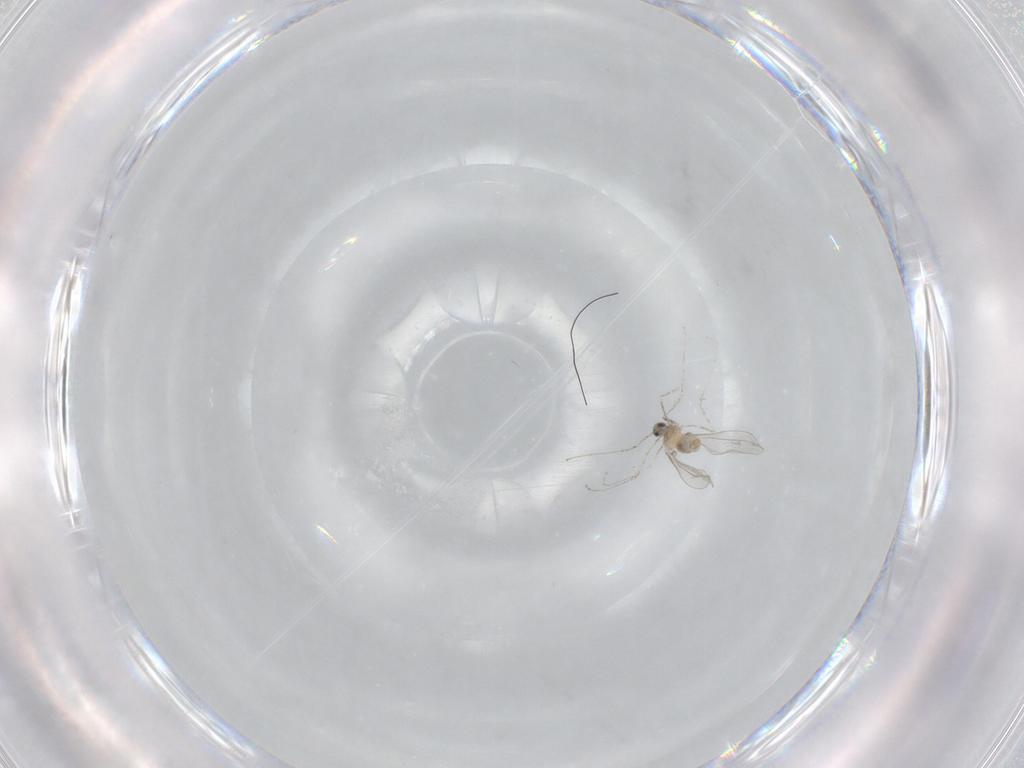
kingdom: Animalia
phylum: Arthropoda
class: Insecta
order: Diptera
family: Cecidomyiidae
